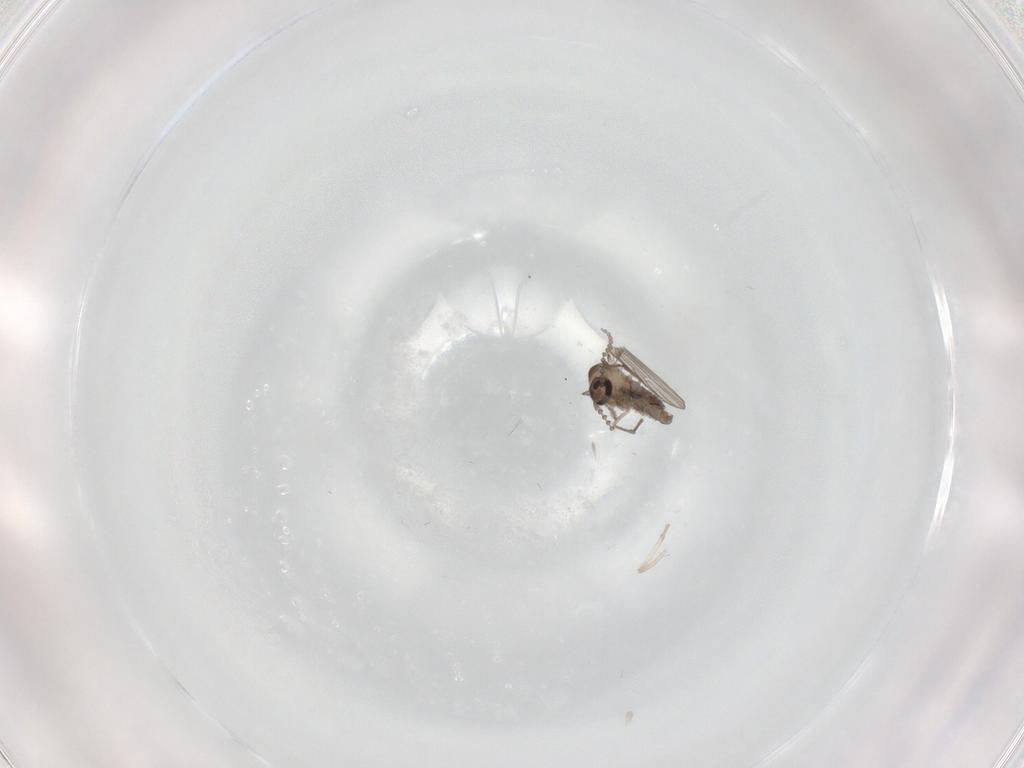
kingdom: Animalia
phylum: Arthropoda
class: Insecta
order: Diptera
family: Psychodidae
